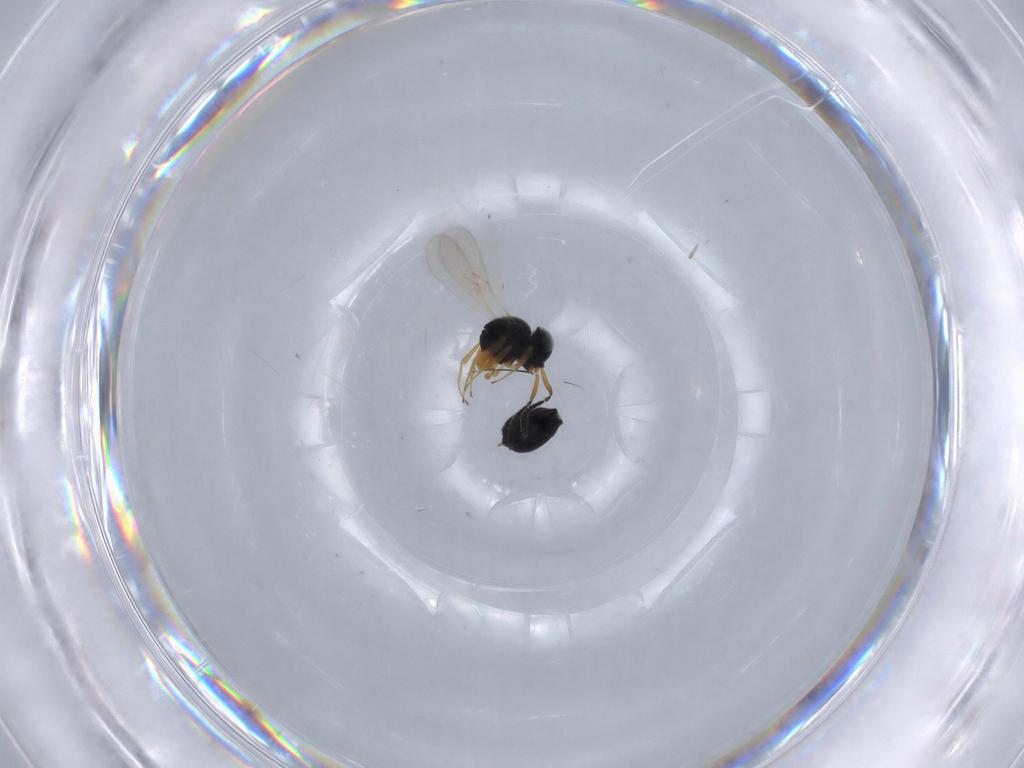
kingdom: Animalia
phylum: Arthropoda
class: Insecta
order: Hymenoptera
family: Scelionidae
